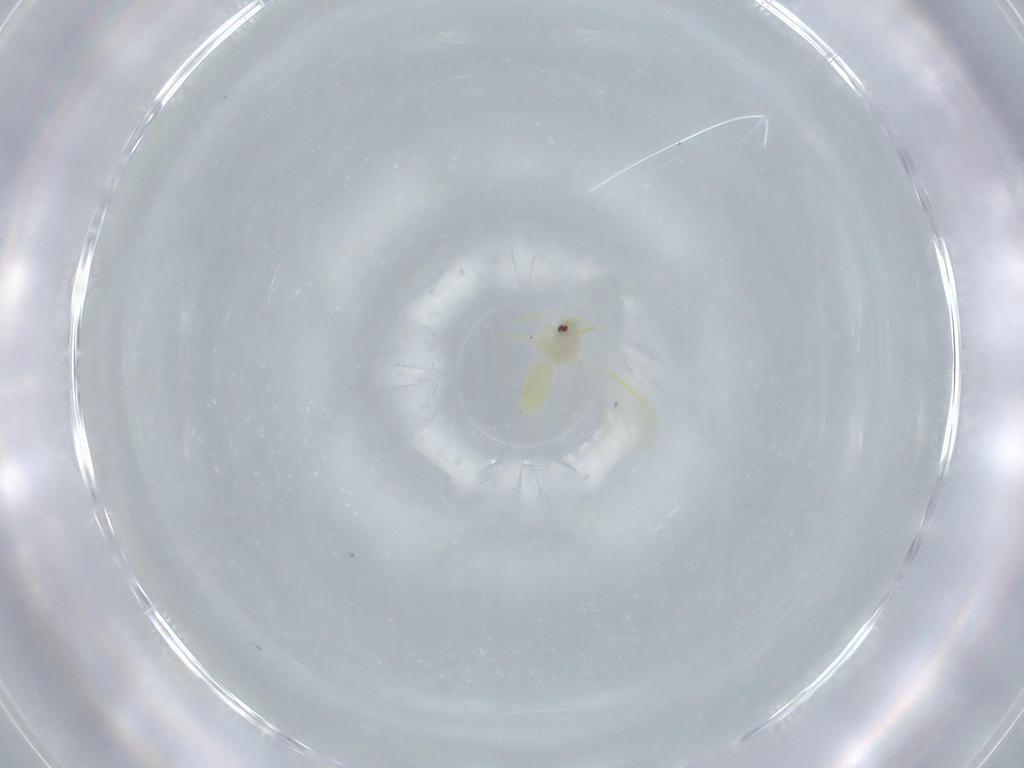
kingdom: Animalia
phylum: Arthropoda
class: Insecta
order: Hemiptera
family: Aleyrodidae
